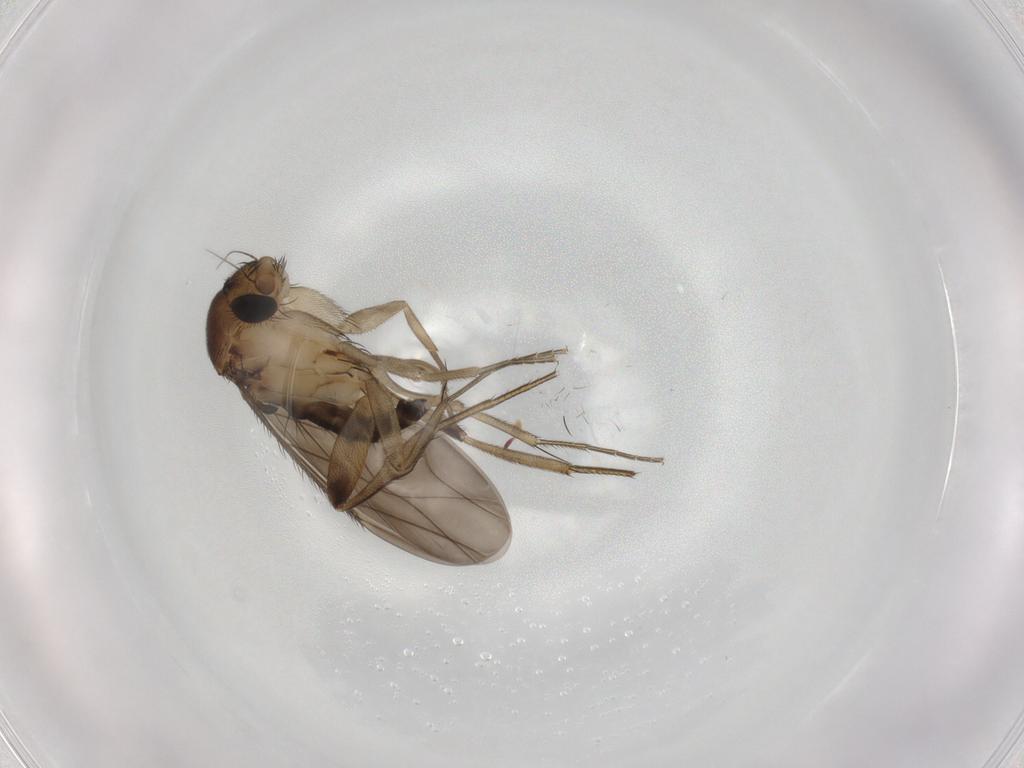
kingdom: Animalia
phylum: Arthropoda
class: Insecta
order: Diptera
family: Phoridae
